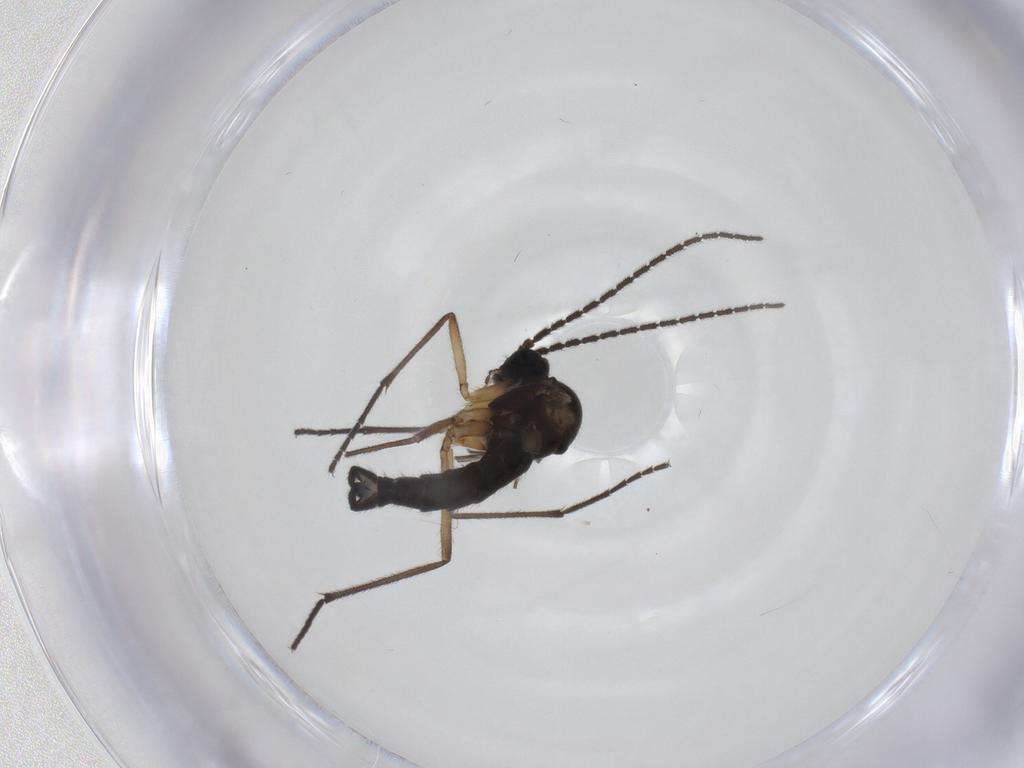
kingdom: Animalia
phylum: Arthropoda
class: Insecta
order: Diptera
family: Sciaridae
